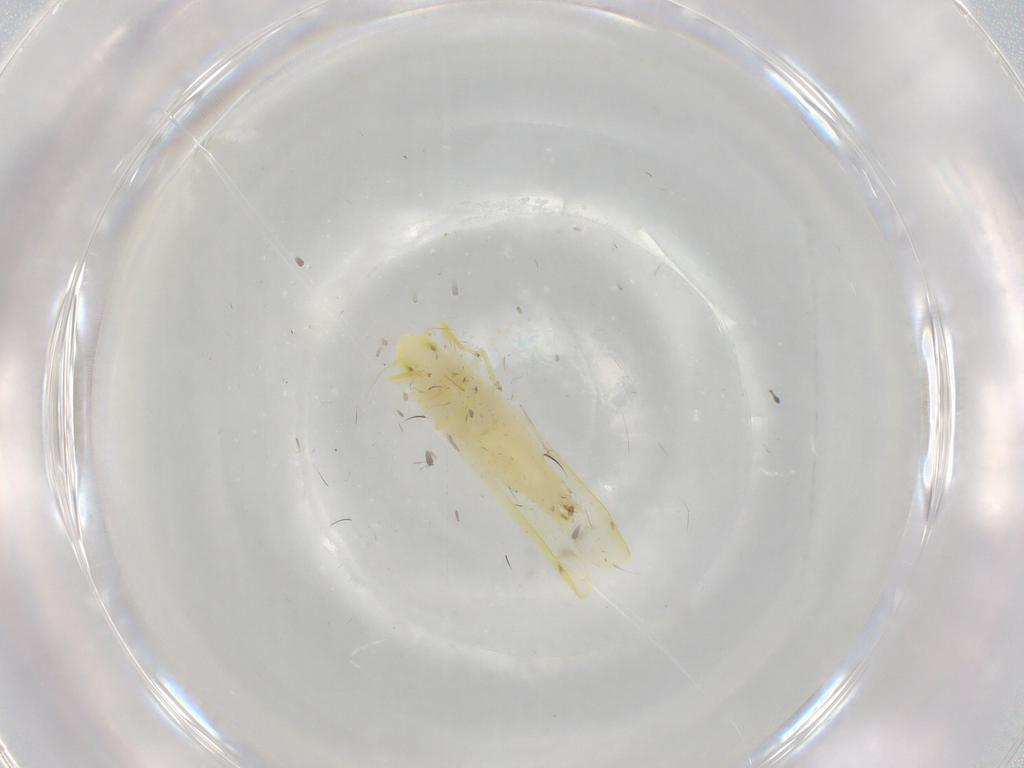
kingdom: Animalia
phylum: Arthropoda
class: Insecta
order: Hemiptera
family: Cicadellidae
